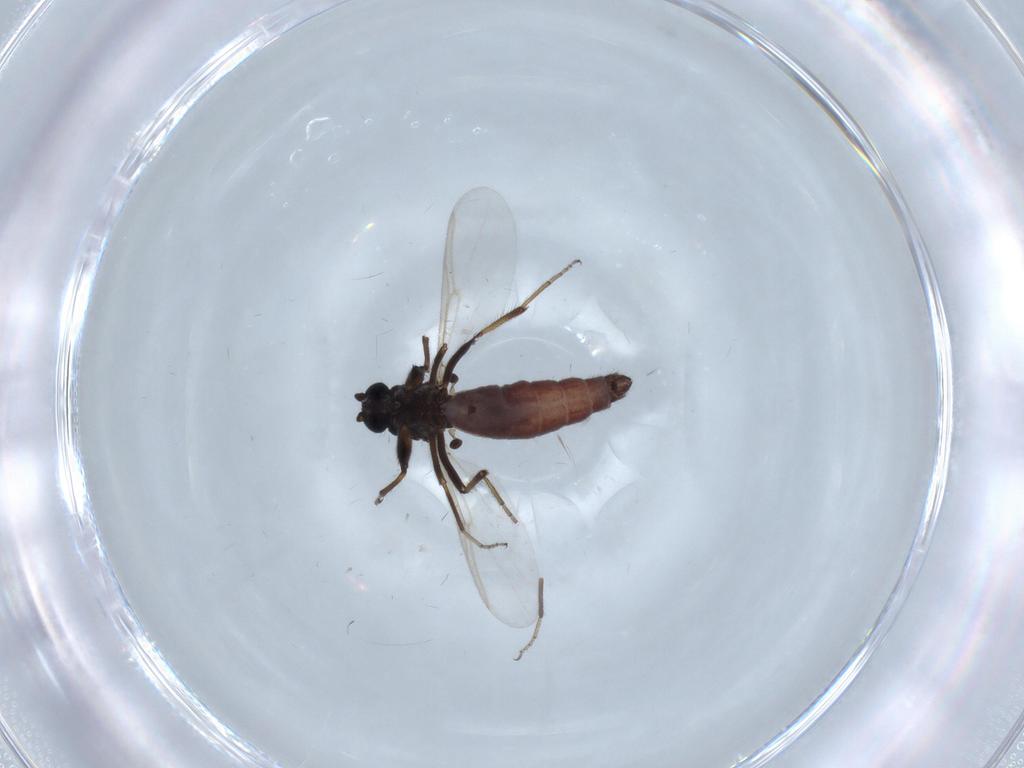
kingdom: Animalia
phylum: Arthropoda
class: Insecta
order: Diptera
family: Ceratopogonidae
